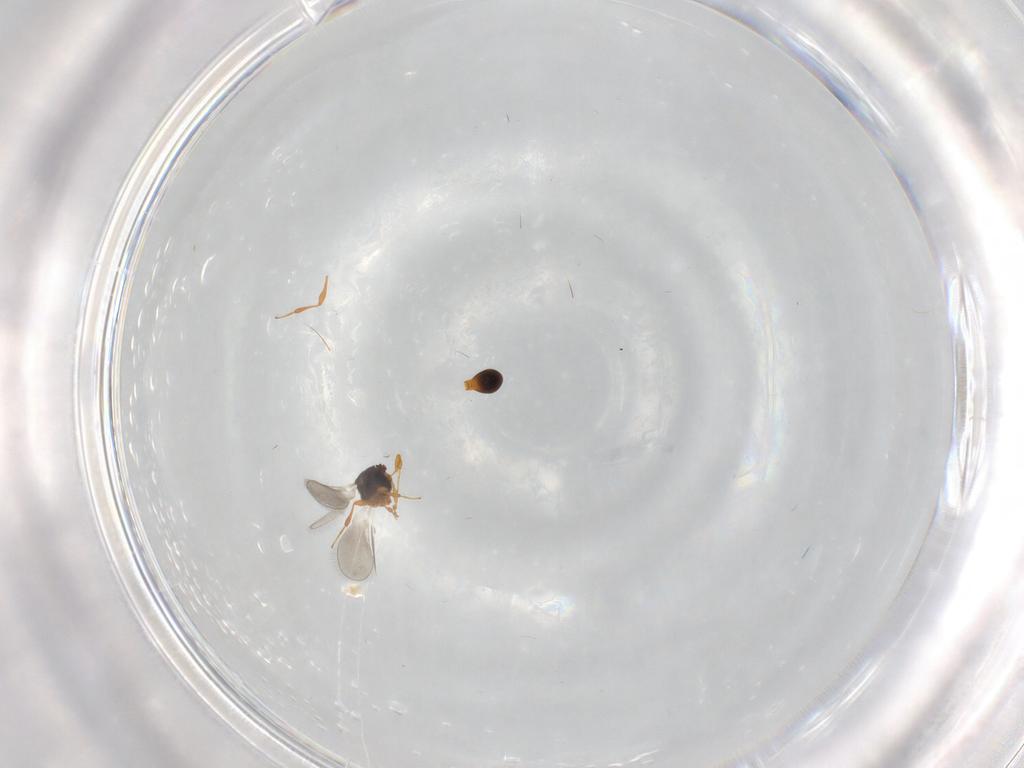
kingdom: Animalia
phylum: Arthropoda
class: Insecta
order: Hymenoptera
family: Platygastridae
